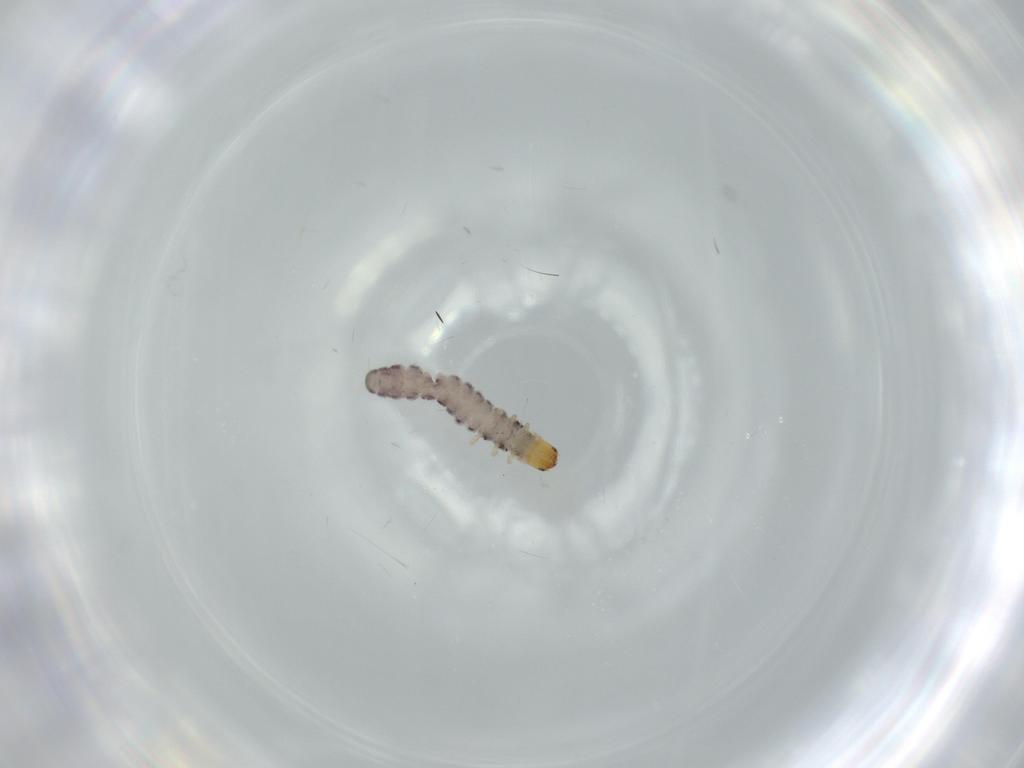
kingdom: Animalia
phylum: Arthropoda
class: Insecta
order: Coleoptera
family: Cleridae
